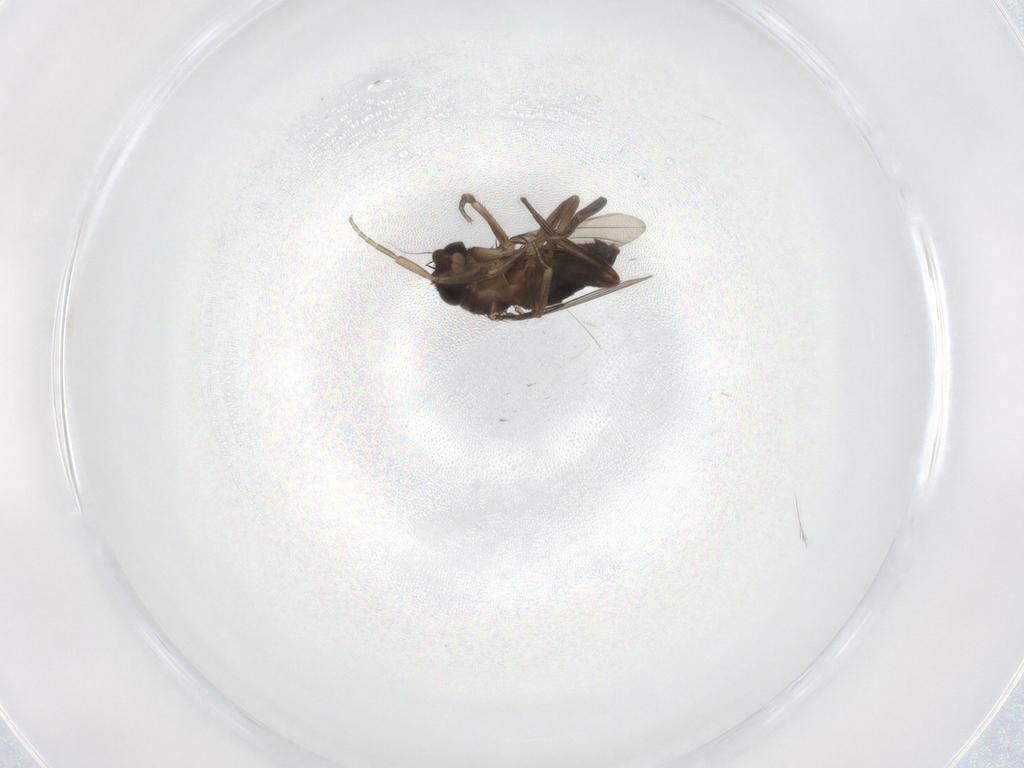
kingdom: Animalia
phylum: Arthropoda
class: Insecta
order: Diptera
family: Phoridae
